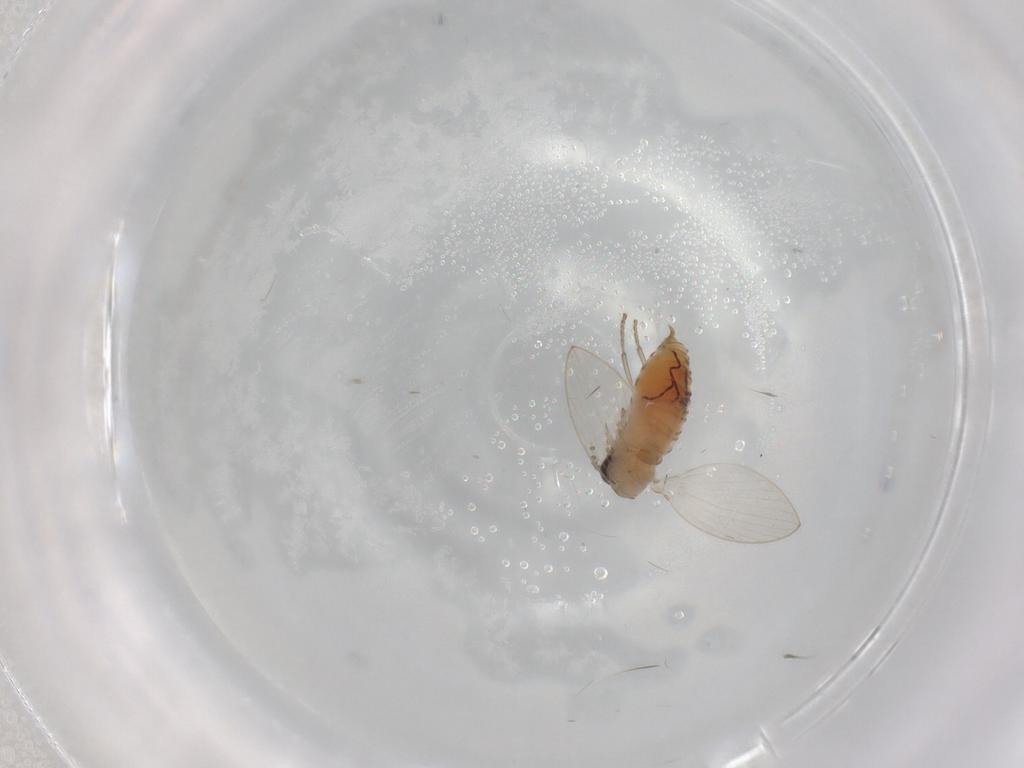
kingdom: Animalia
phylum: Arthropoda
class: Insecta
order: Diptera
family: Psychodidae
